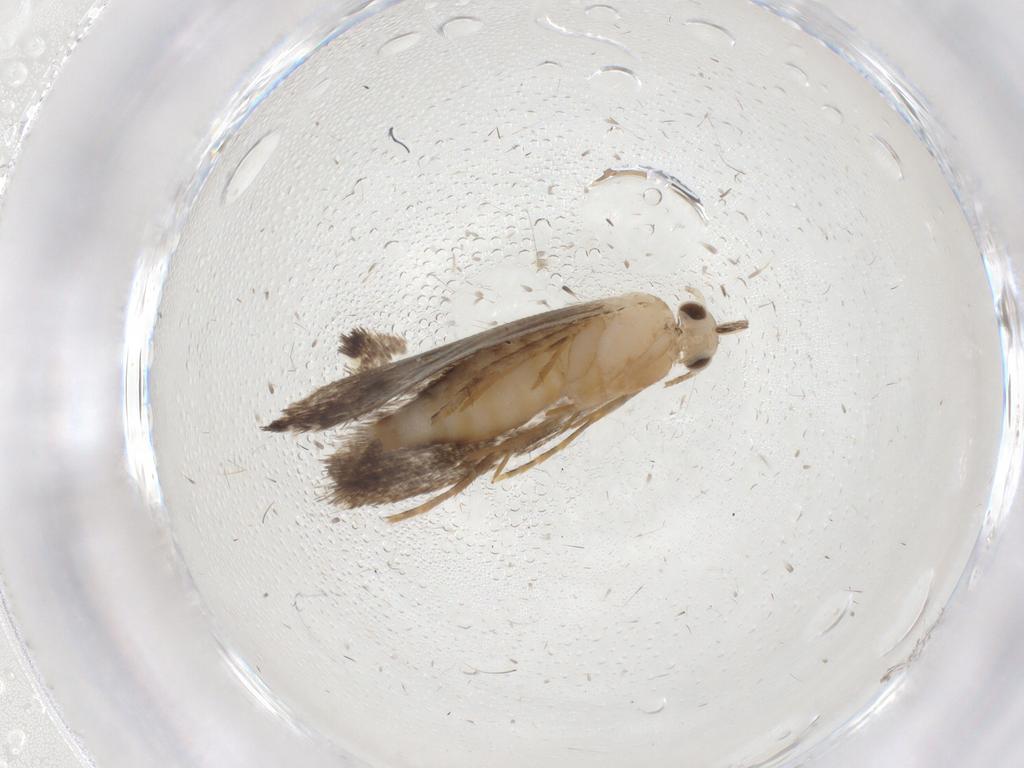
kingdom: Animalia
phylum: Arthropoda
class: Insecta
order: Lepidoptera
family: Tineidae
